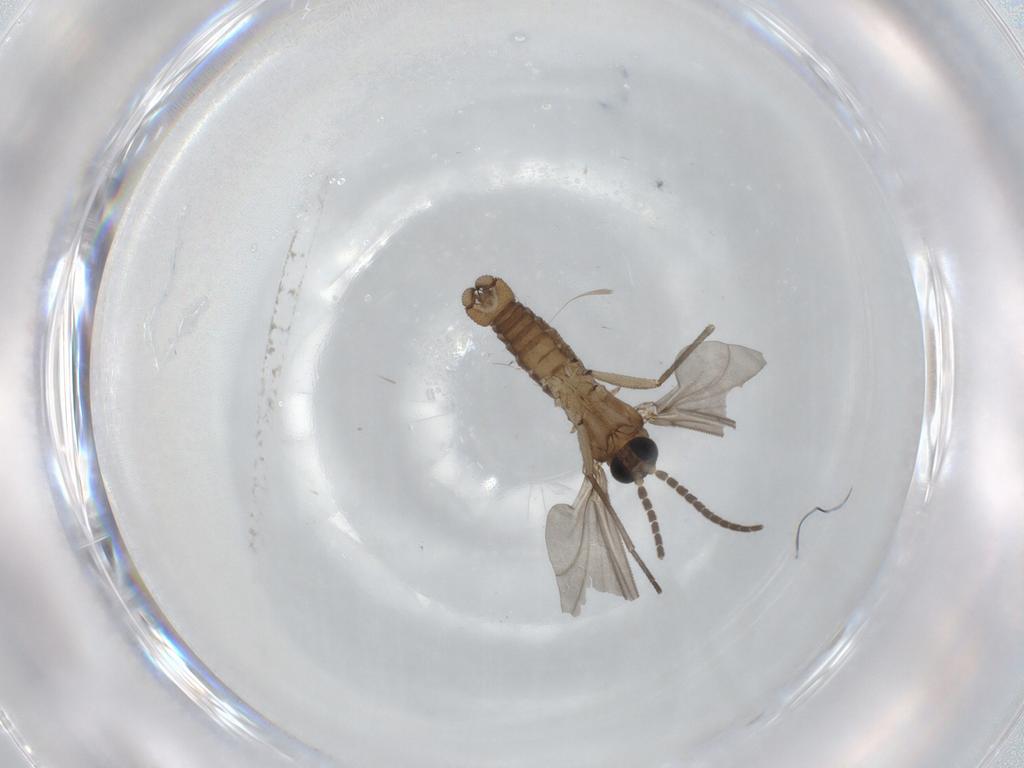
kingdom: Animalia
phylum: Arthropoda
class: Insecta
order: Diptera
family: Sciaridae
